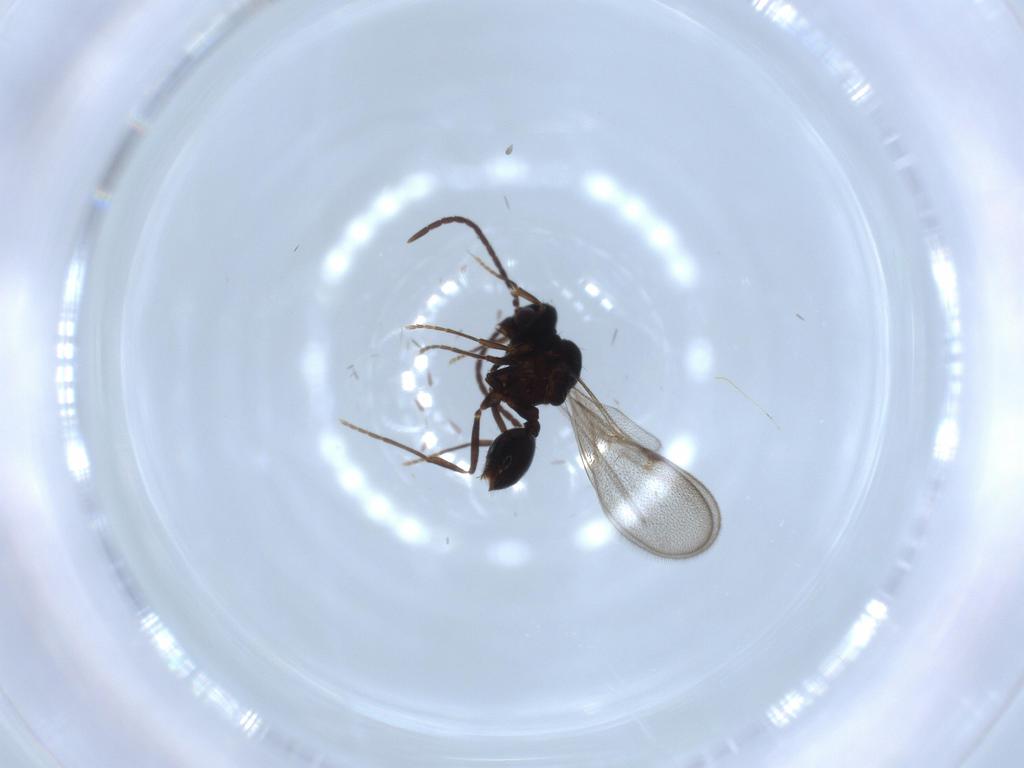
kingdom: Animalia
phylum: Arthropoda
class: Insecta
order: Hymenoptera
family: Formicidae
